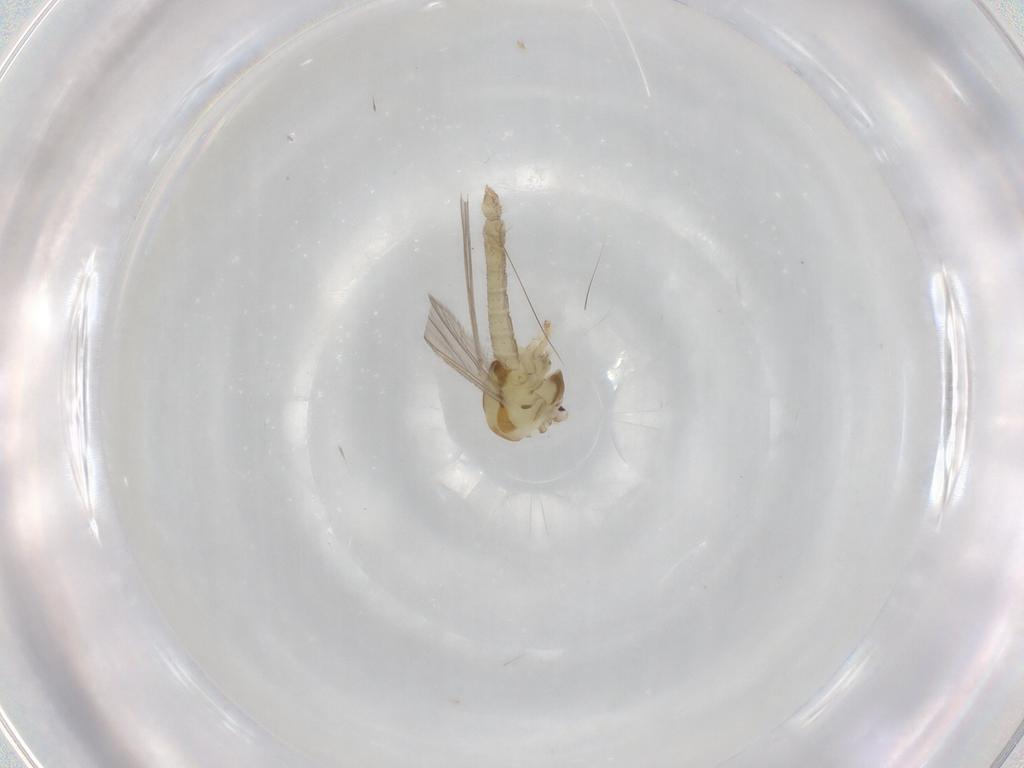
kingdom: Animalia
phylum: Arthropoda
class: Insecta
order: Diptera
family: Chironomidae
